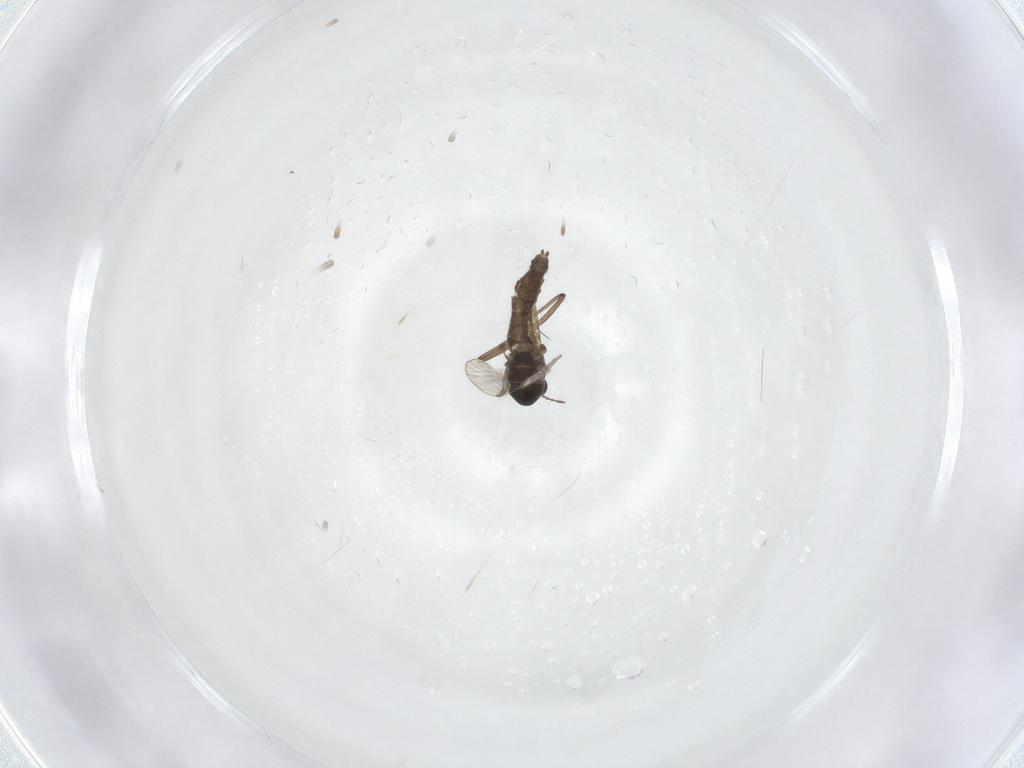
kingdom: Animalia
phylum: Arthropoda
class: Insecta
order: Diptera
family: Chironomidae
